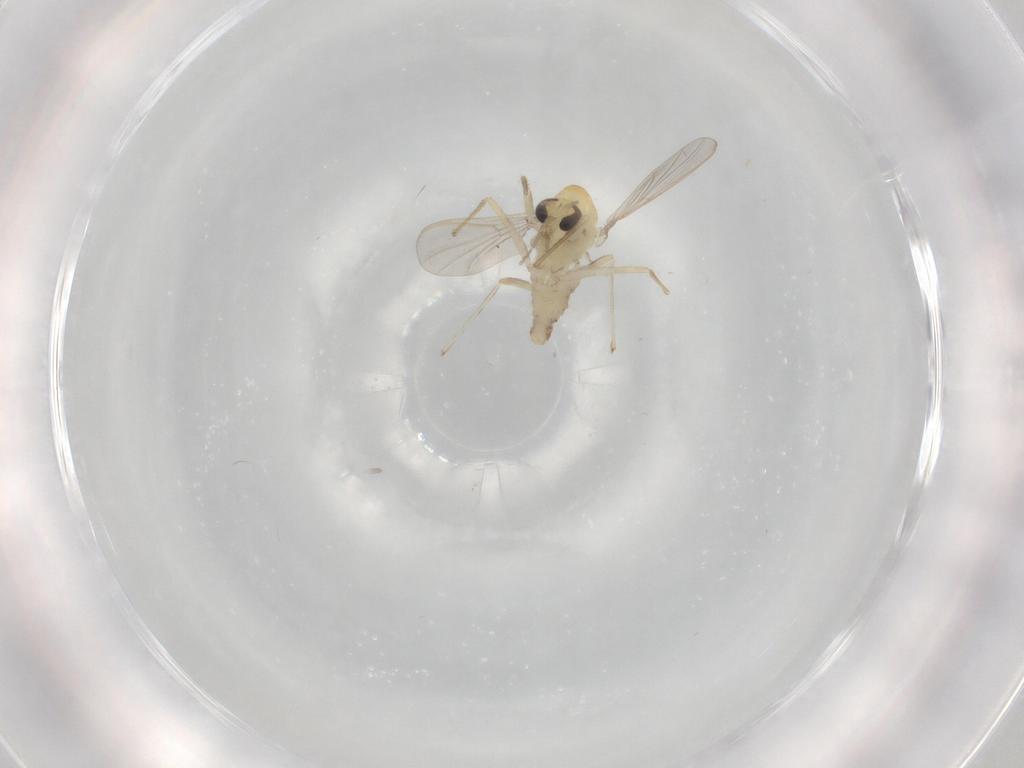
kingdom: Animalia
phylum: Arthropoda
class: Insecta
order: Diptera
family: Chironomidae
